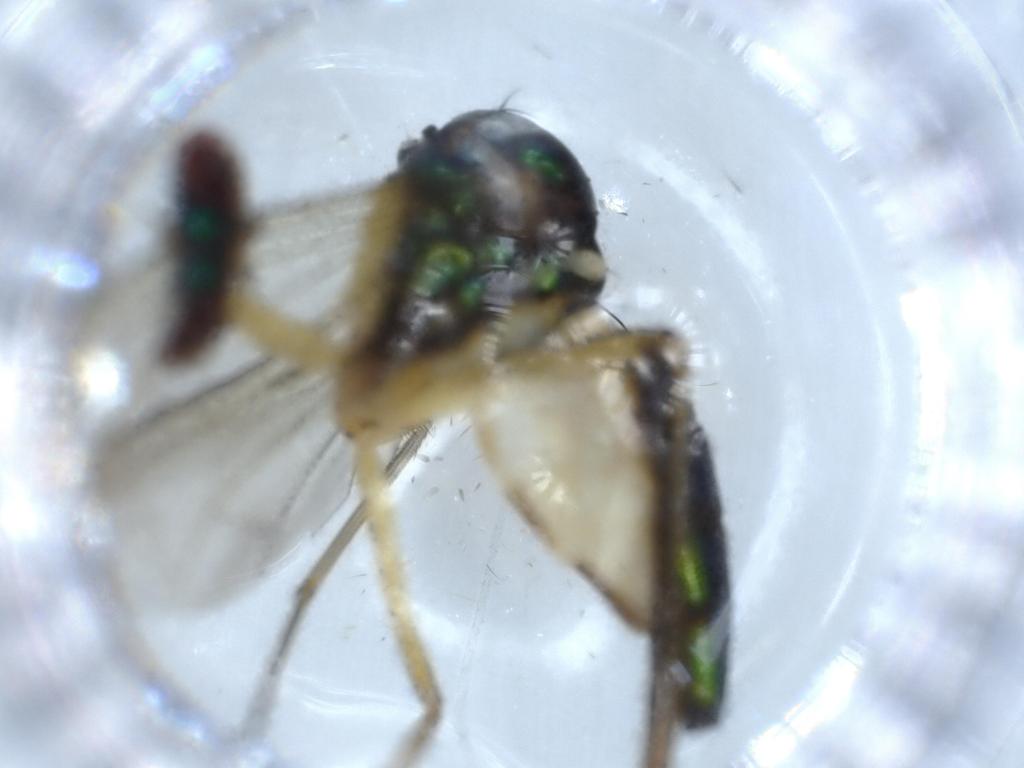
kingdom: Animalia
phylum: Arthropoda
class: Insecta
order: Diptera
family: Dolichopodidae
